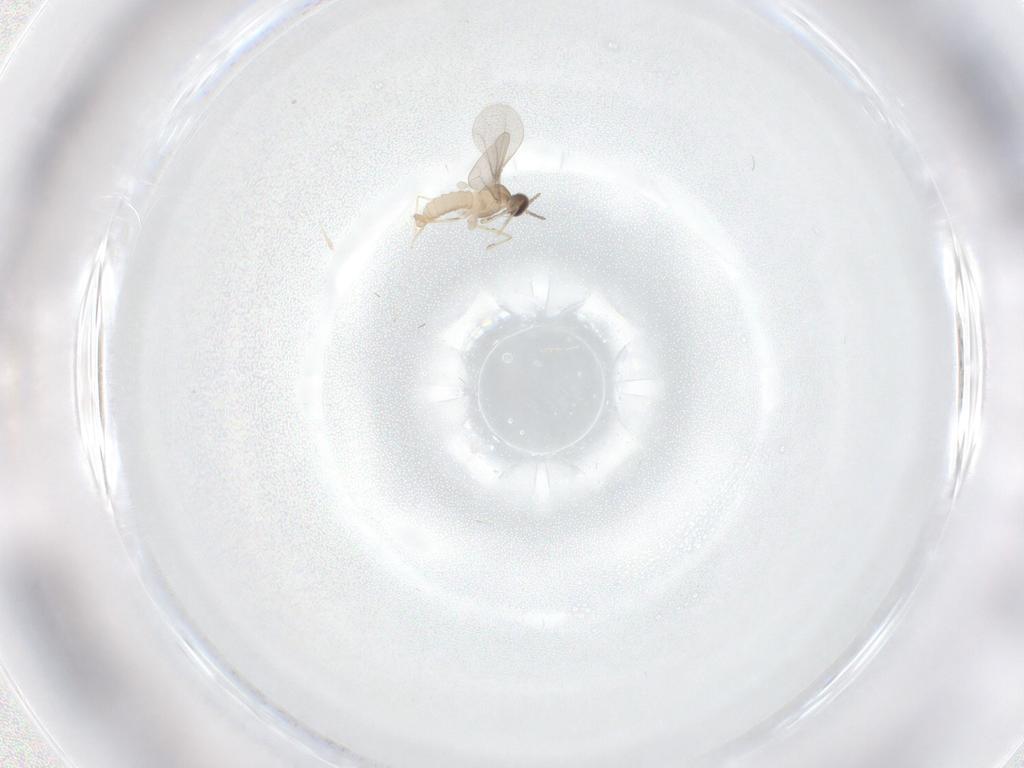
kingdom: Animalia
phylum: Arthropoda
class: Insecta
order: Diptera
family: Cecidomyiidae
